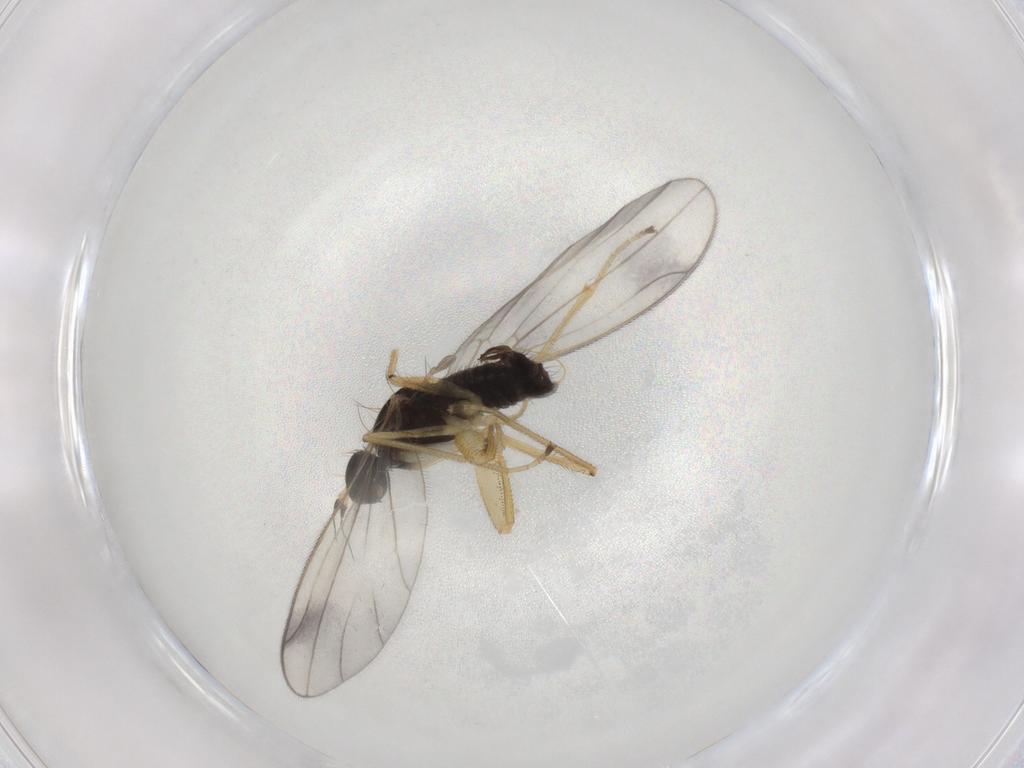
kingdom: Animalia
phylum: Arthropoda
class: Insecta
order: Diptera
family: Empididae
